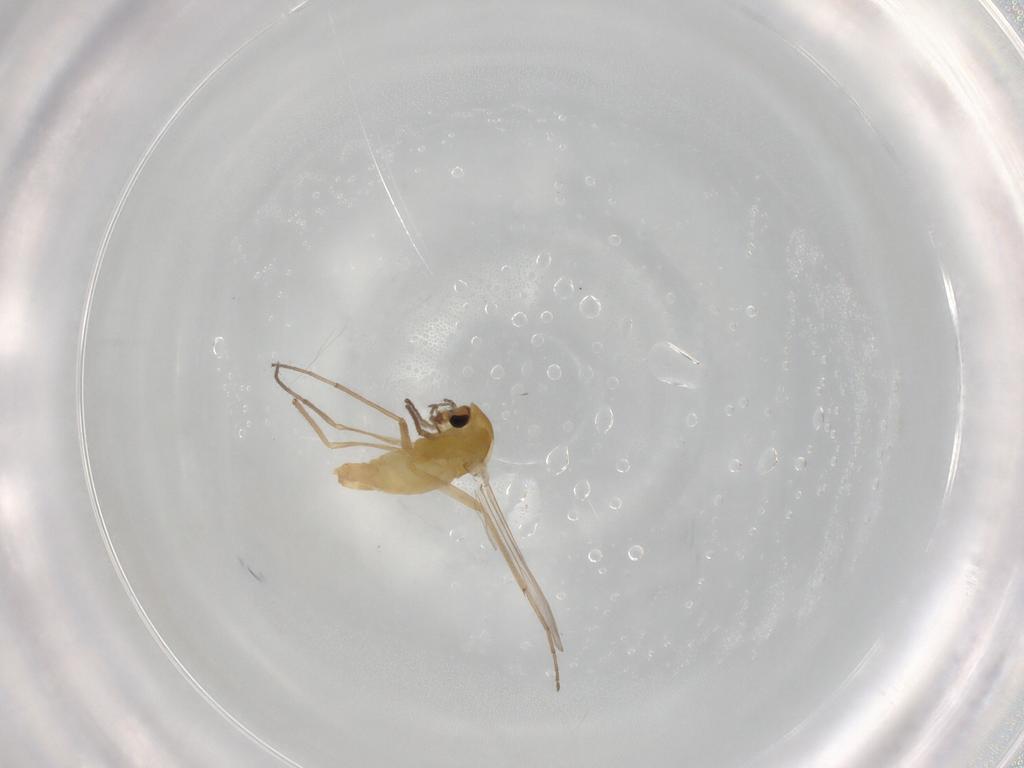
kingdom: Animalia
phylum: Arthropoda
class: Insecta
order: Diptera
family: Chironomidae
